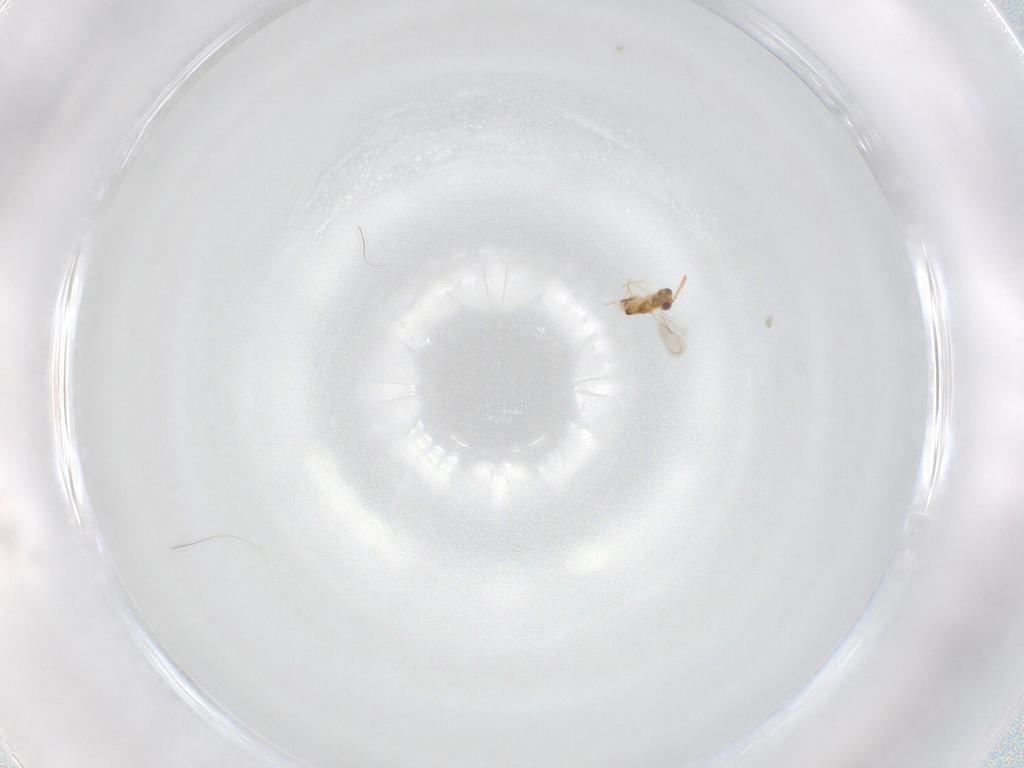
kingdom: Animalia
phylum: Arthropoda
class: Insecta
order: Hymenoptera
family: Aphelinidae
